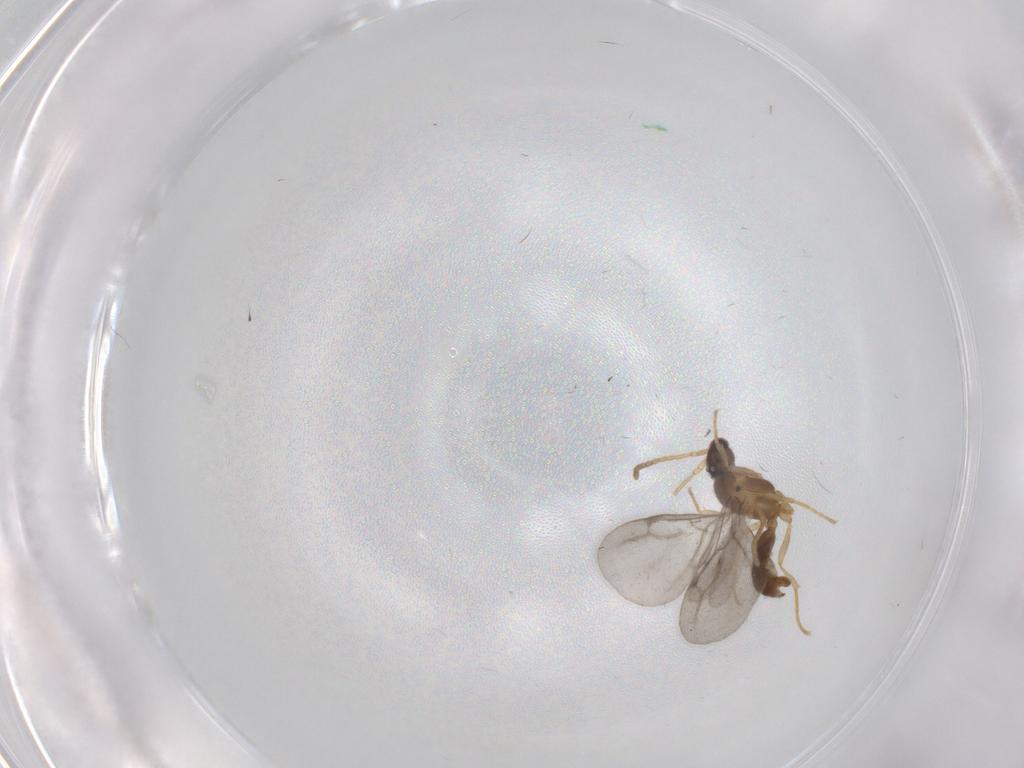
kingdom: Animalia
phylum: Arthropoda
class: Insecta
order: Hymenoptera
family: Formicidae
